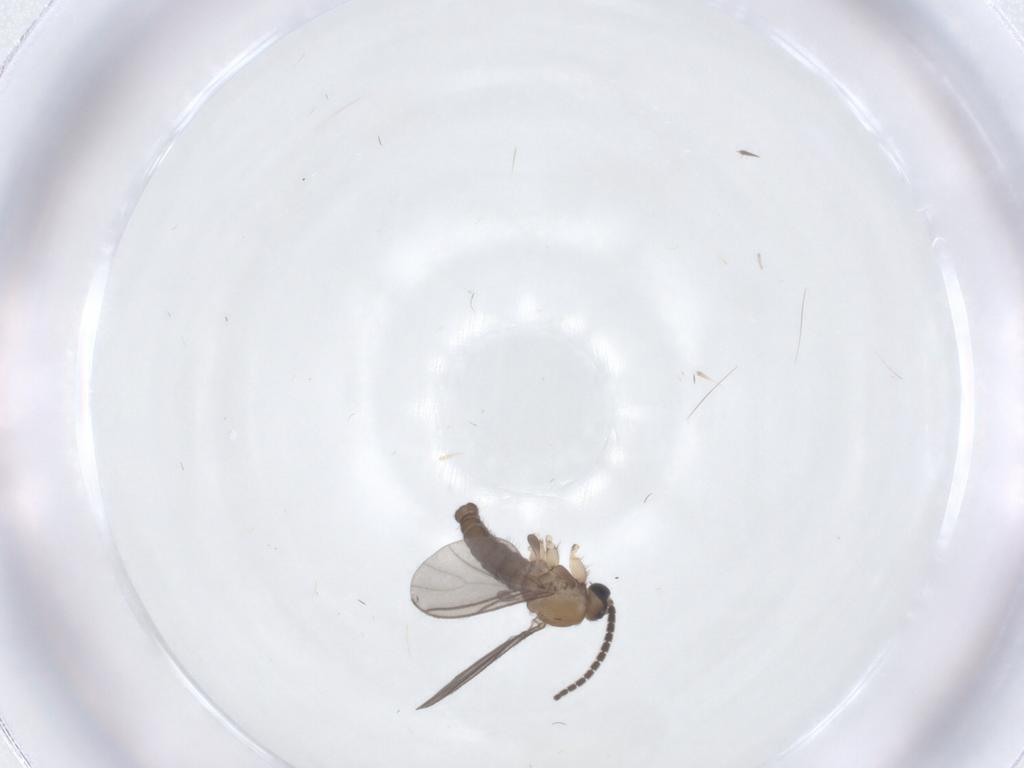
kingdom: Animalia
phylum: Arthropoda
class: Insecta
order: Diptera
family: Sciaridae
